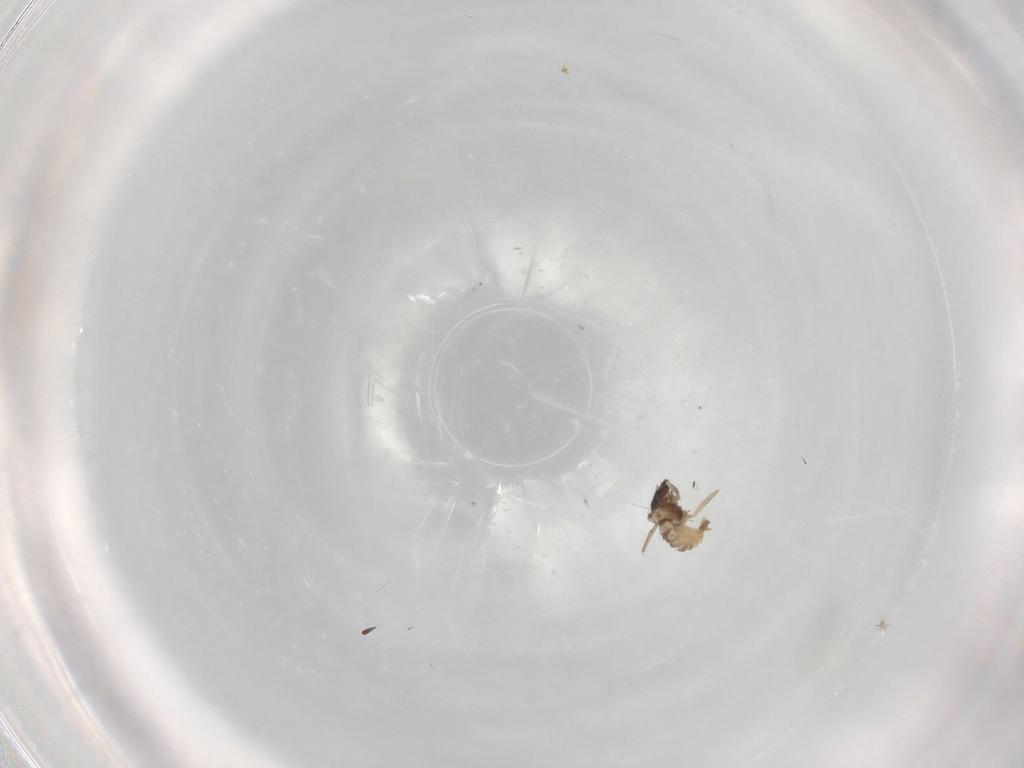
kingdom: Animalia
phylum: Arthropoda
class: Insecta
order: Diptera
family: Cecidomyiidae
